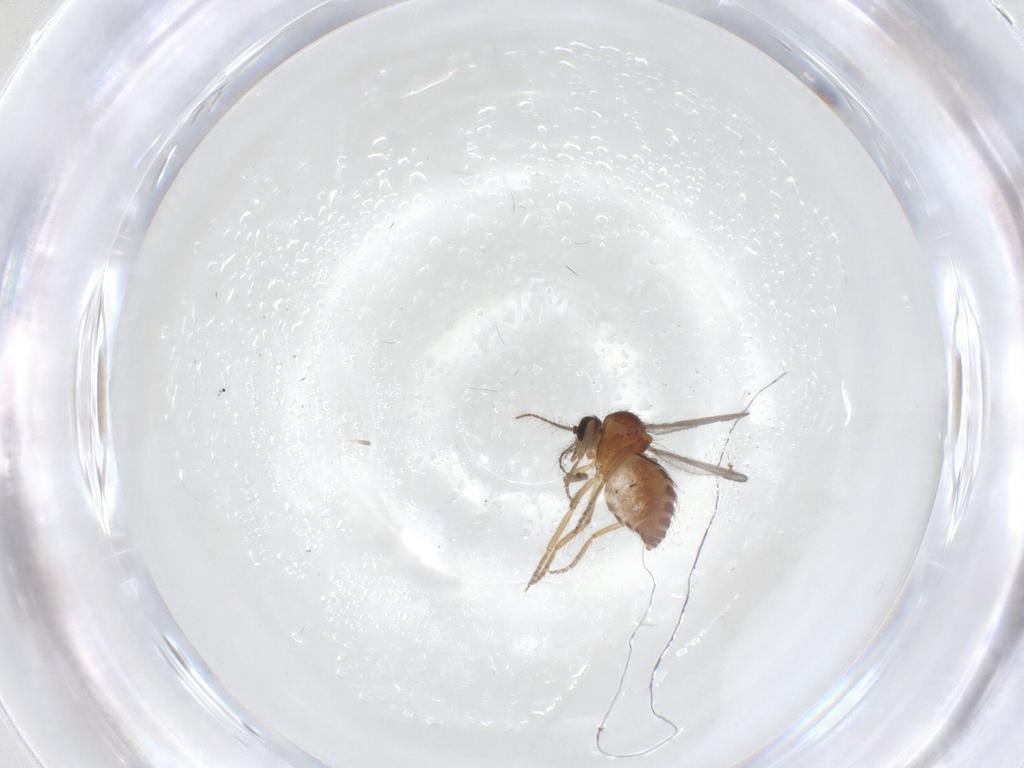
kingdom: Animalia
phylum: Arthropoda
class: Insecta
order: Diptera
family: Ceratopogonidae
